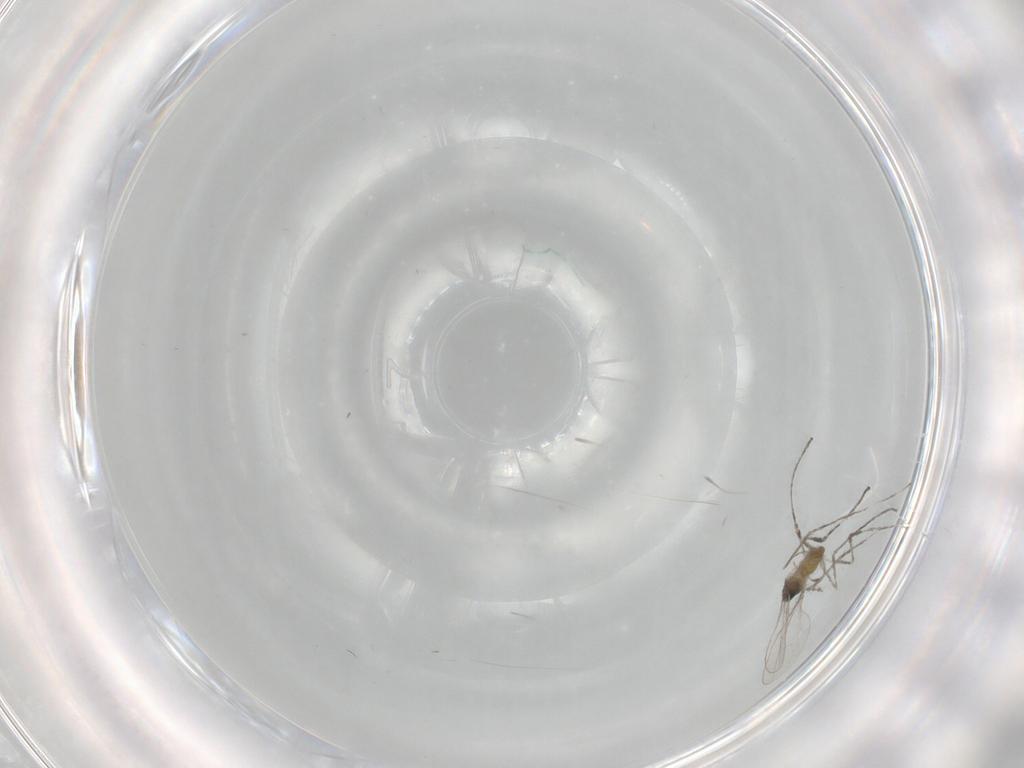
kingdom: Animalia
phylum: Arthropoda
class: Insecta
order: Diptera
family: Cecidomyiidae
